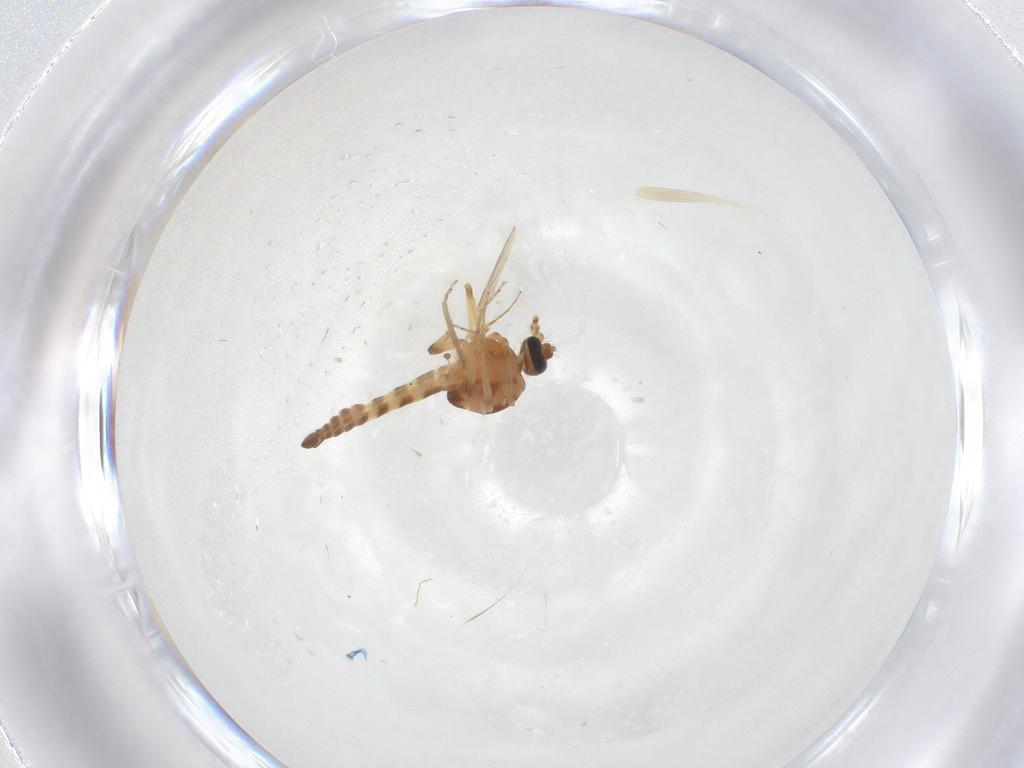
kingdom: Animalia
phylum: Arthropoda
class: Insecta
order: Diptera
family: Ceratopogonidae
